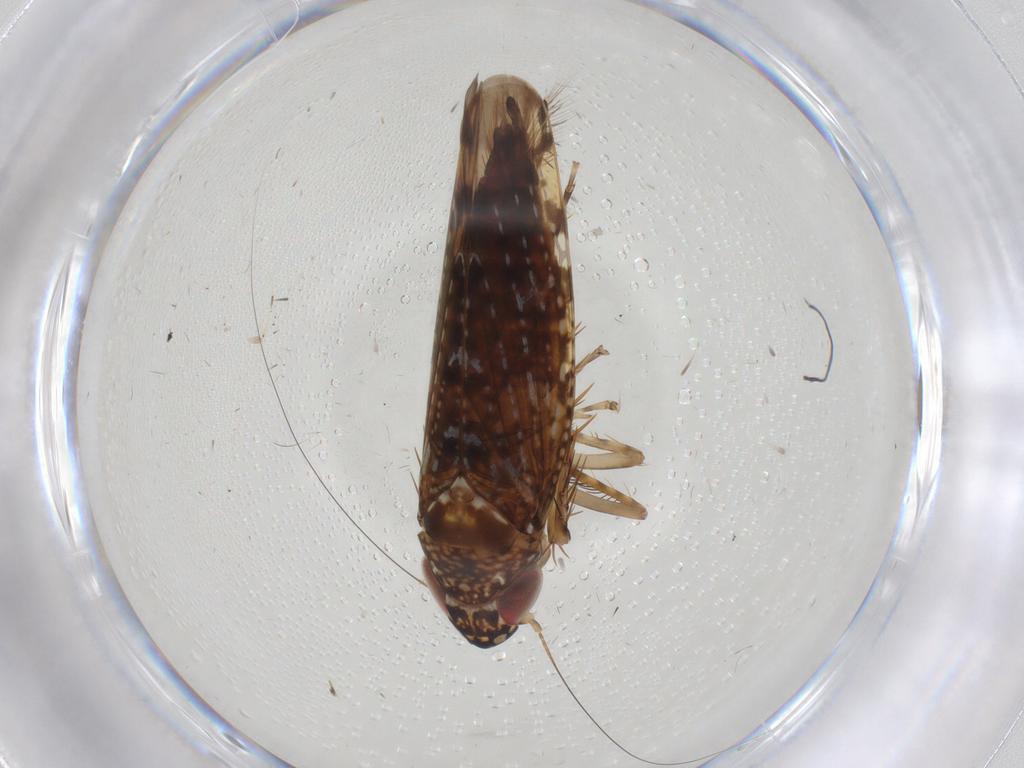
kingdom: Animalia
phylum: Arthropoda
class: Insecta
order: Hemiptera
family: Cicadellidae
